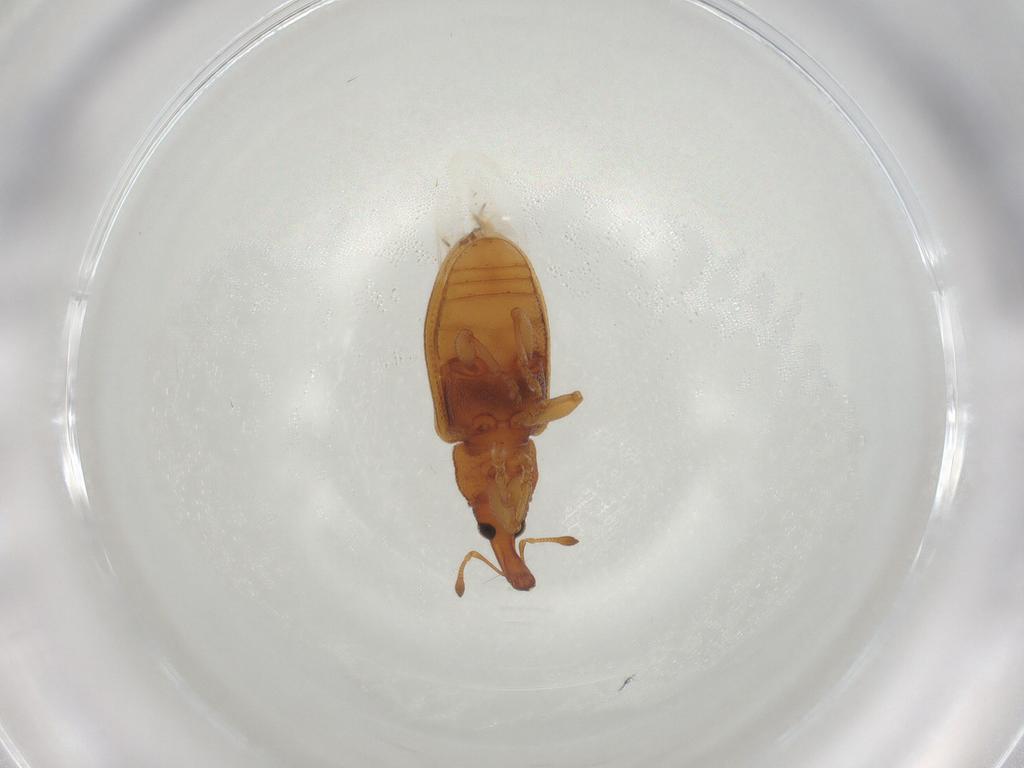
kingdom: Animalia
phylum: Arthropoda
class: Insecta
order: Coleoptera
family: Curculionidae
